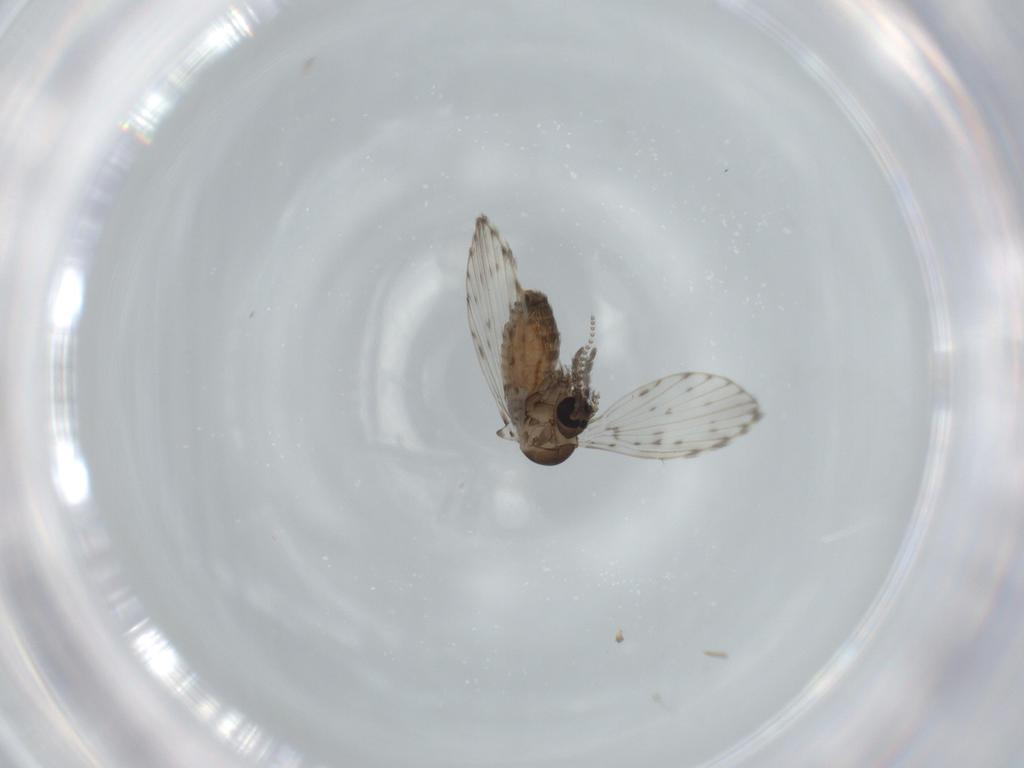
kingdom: Animalia
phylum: Arthropoda
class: Insecta
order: Diptera
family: Psychodidae
